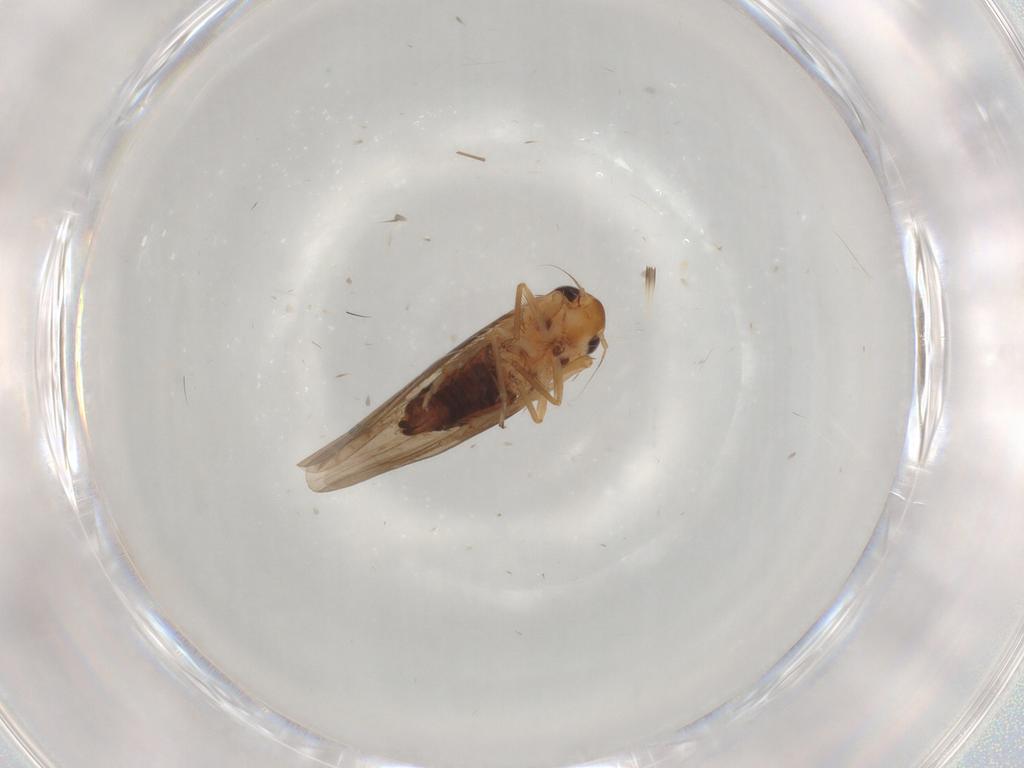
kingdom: Animalia
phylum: Arthropoda
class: Insecta
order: Hemiptera
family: Cicadellidae
